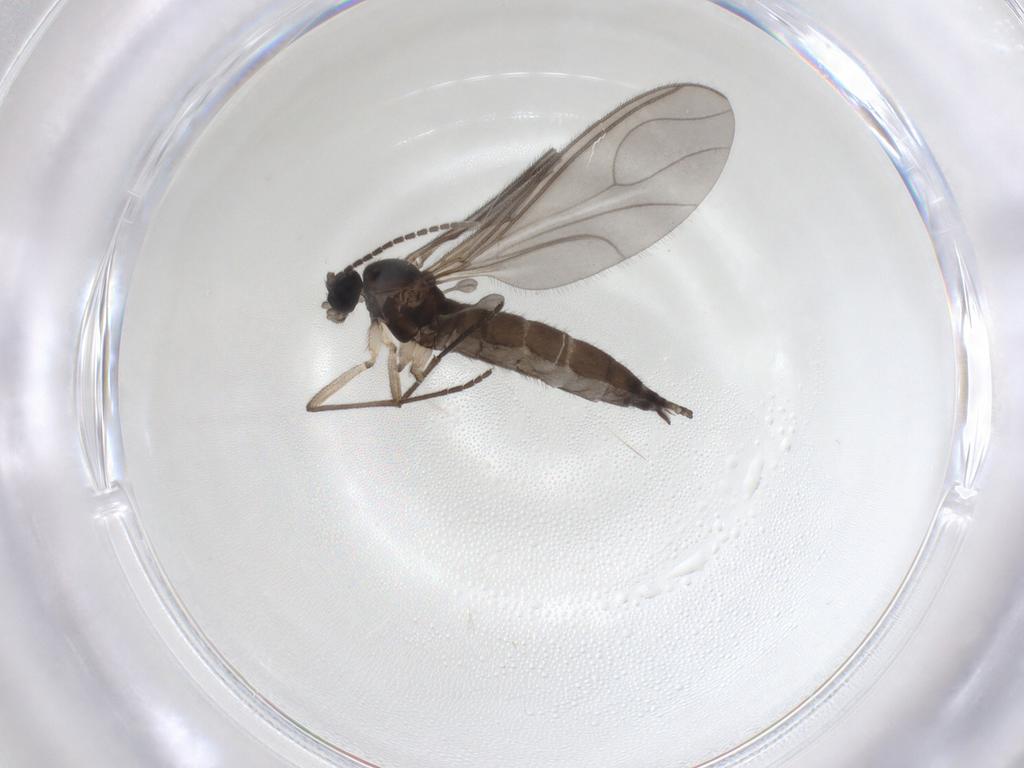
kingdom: Animalia
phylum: Arthropoda
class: Insecta
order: Diptera
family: Sciaridae
